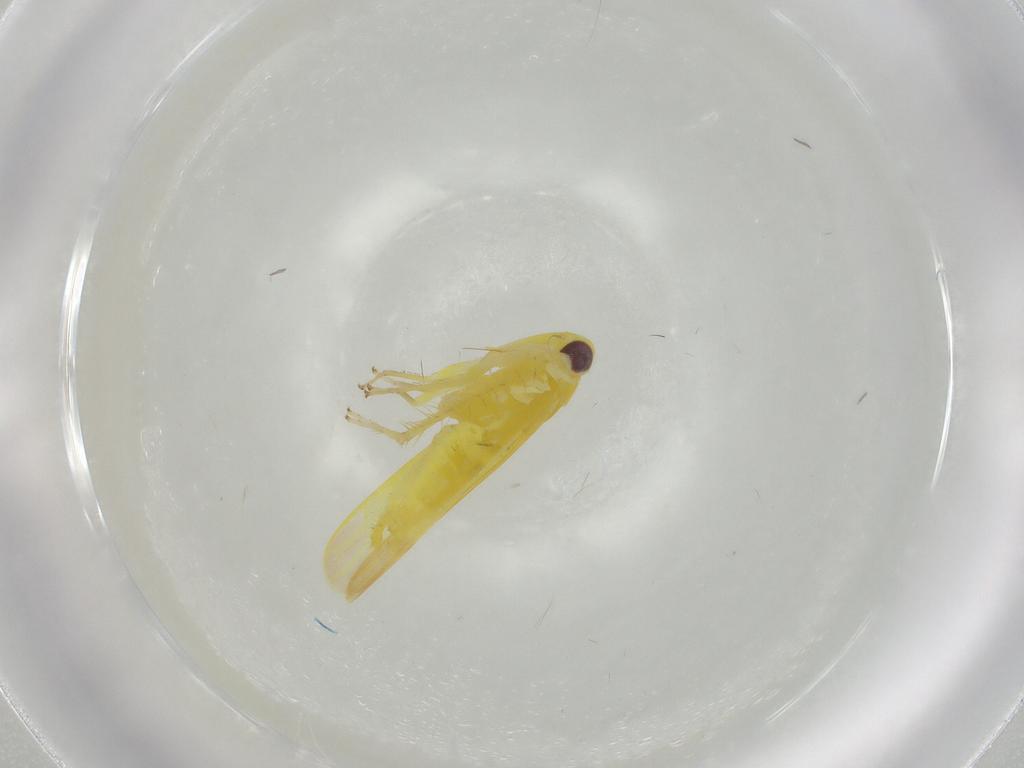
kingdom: Animalia
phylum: Arthropoda
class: Insecta
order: Hemiptera
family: Cicadellidae
